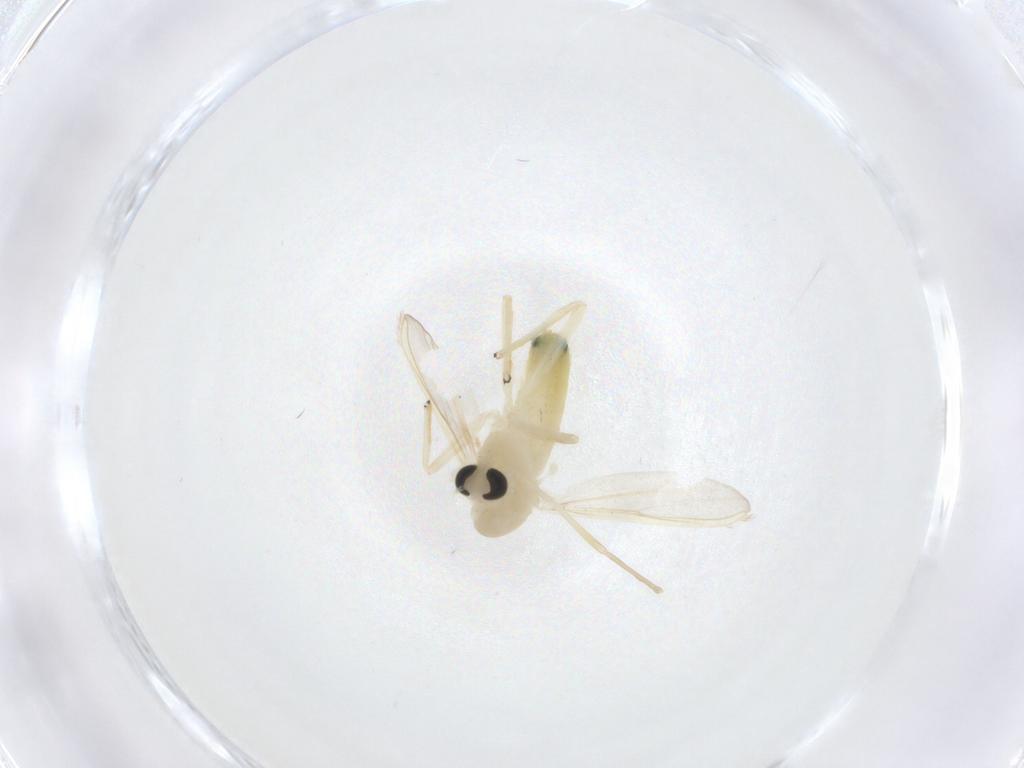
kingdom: Animalia
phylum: Arthropoda
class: Insecta
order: Diptera
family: Chironomidae
